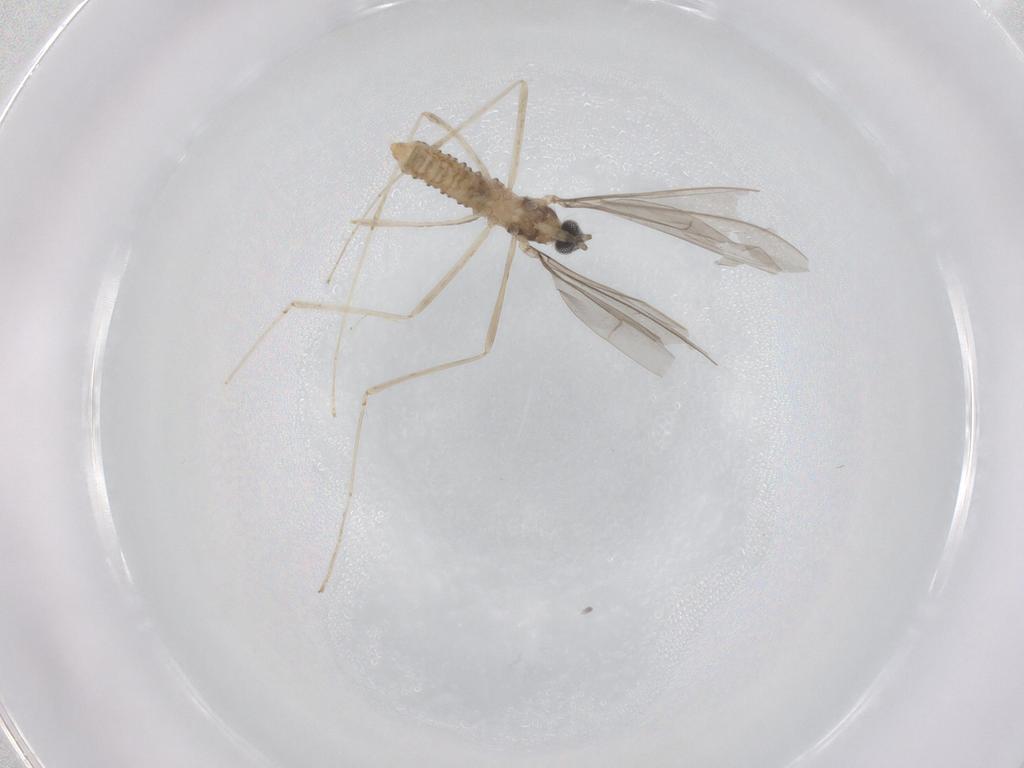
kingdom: Animalia
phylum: Arthropoda
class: Insecta
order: Diptera
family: Cecidomyiidae
